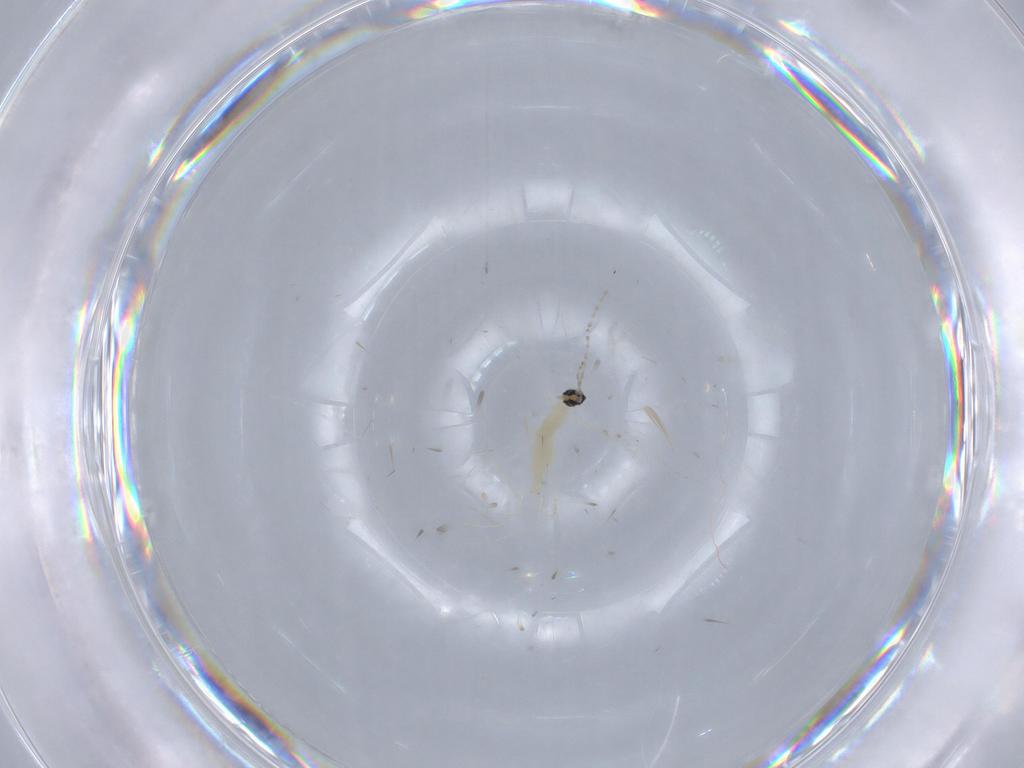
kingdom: Animalia
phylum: Arthropoda
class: Insecta
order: Diptera
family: Cecidomyiidae
